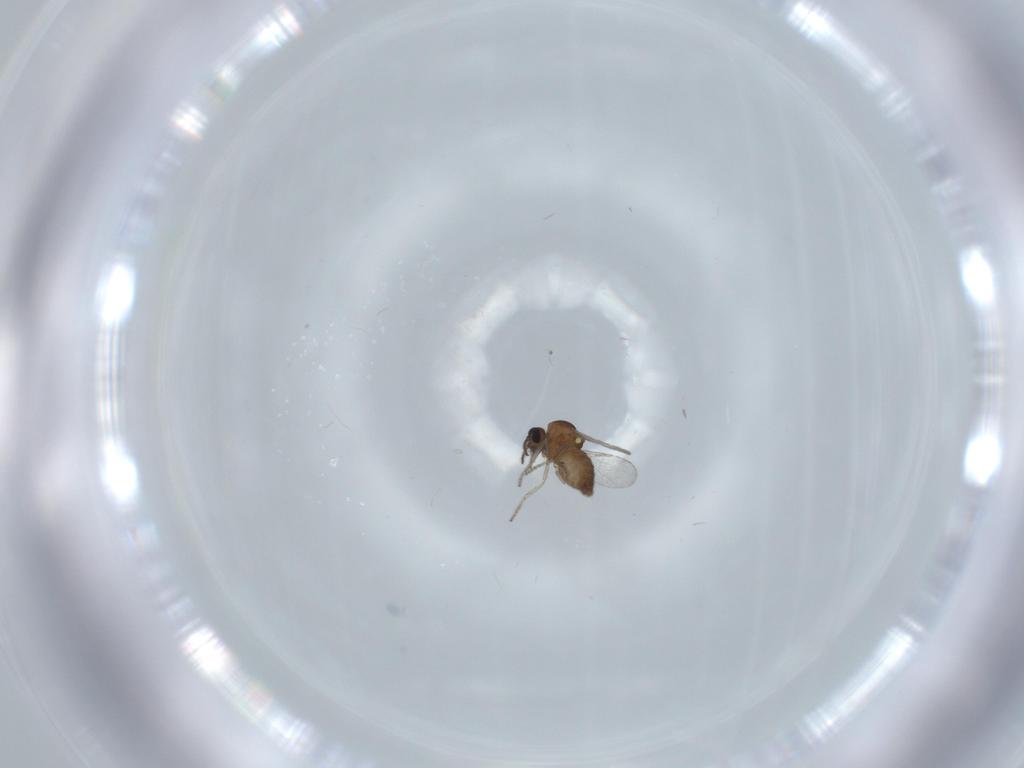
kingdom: Animalia
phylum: Arthropoda
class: Insecta
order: Diptera
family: Ceratopogonidae
